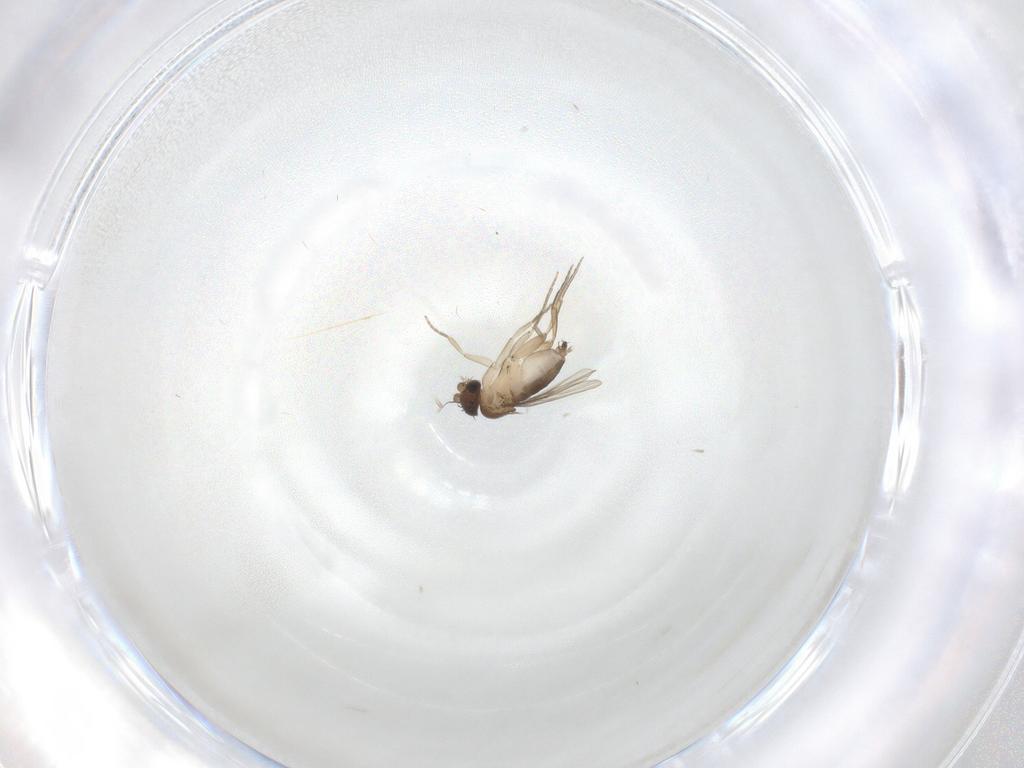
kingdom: Animalia
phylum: Arthropoda
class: Insecta
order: Diptera
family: Phoridae
